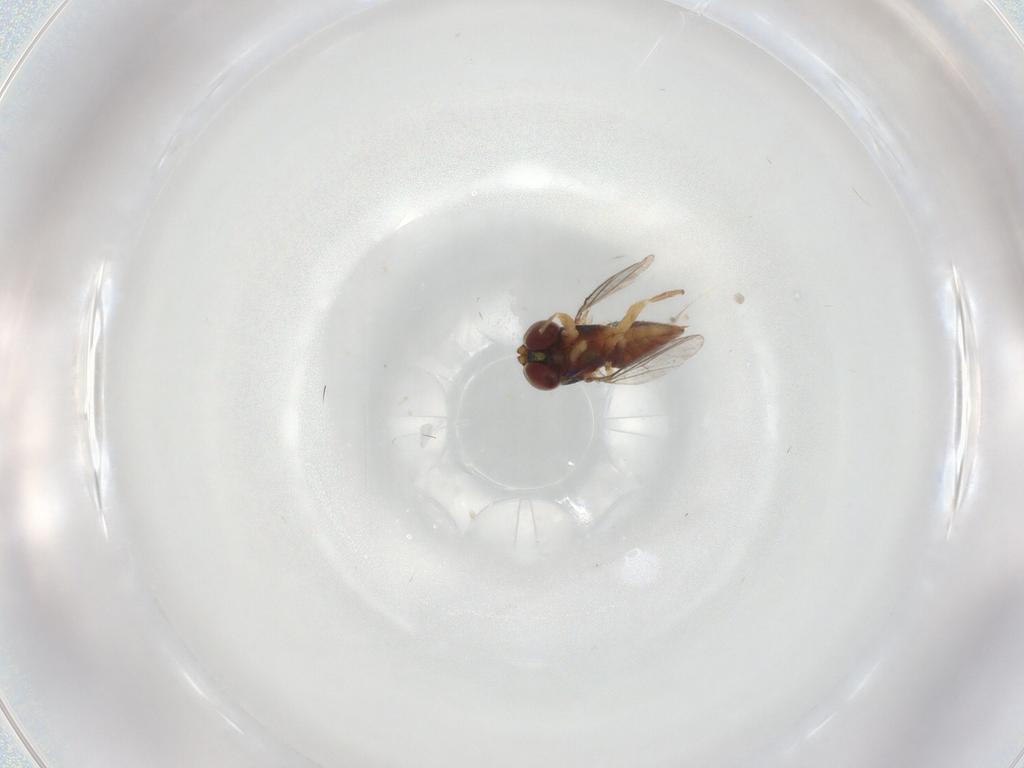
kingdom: Animalia
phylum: Arthropoda
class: Insecta
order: Diptera
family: Dolichopodidae
